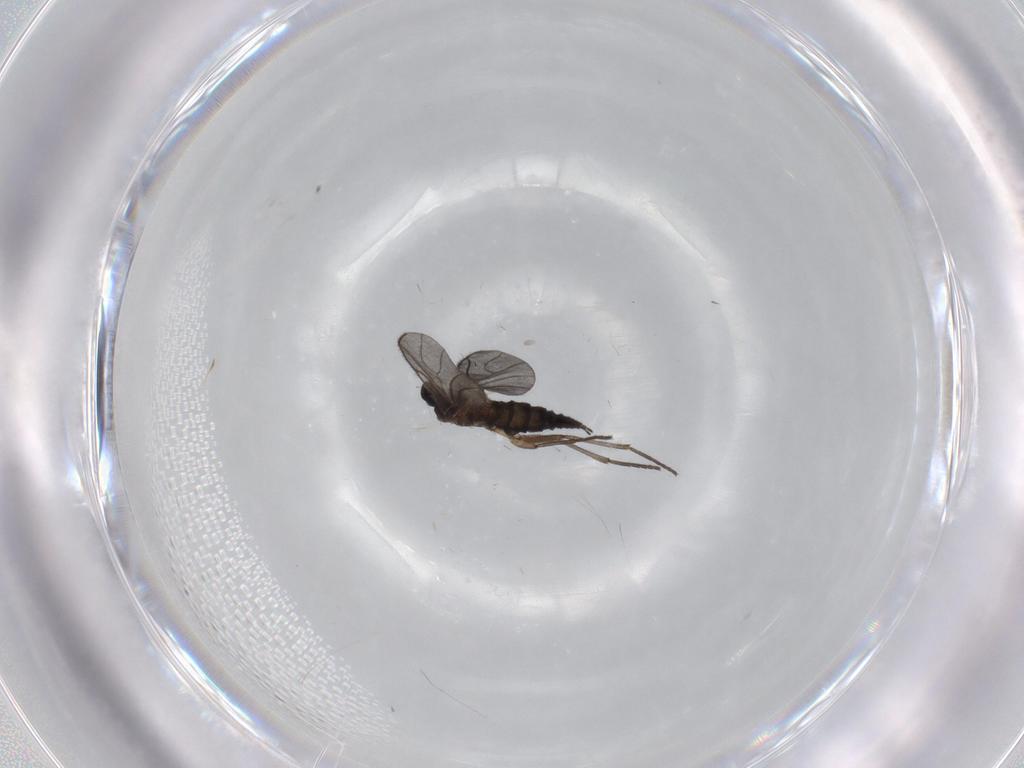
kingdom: Animalia
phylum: Arthropoda
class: Insecta
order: Diptera
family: Sciaridae
